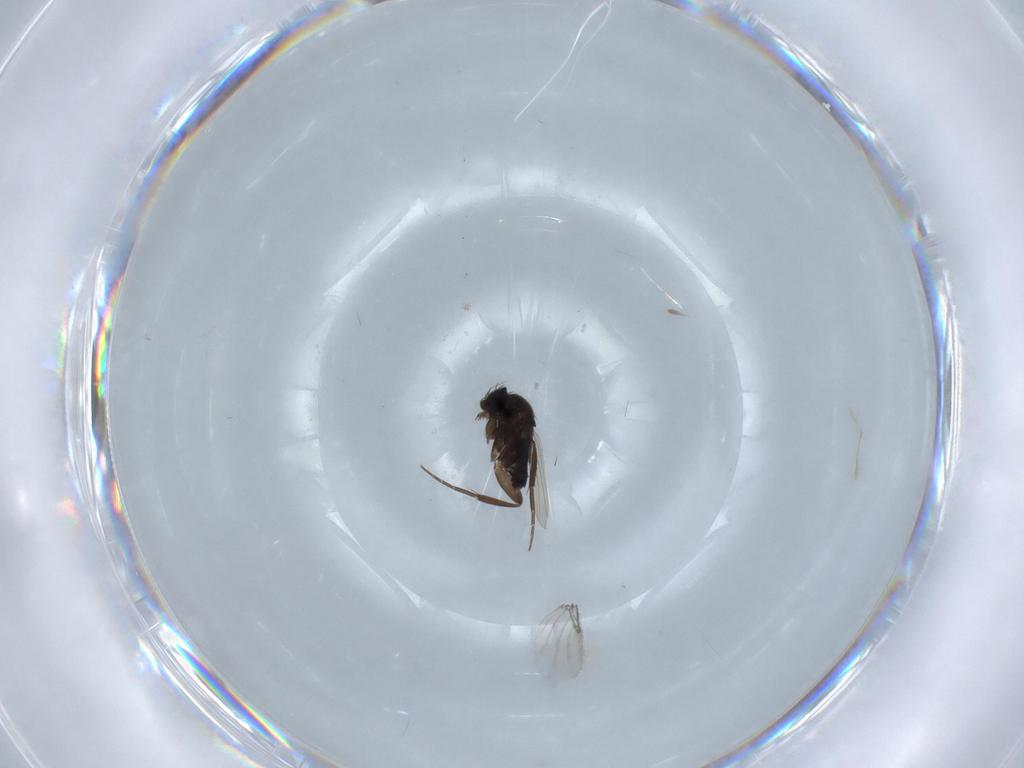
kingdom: Animalia
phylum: Arthropoda
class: Insecta
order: Diptera
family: Phoridae
